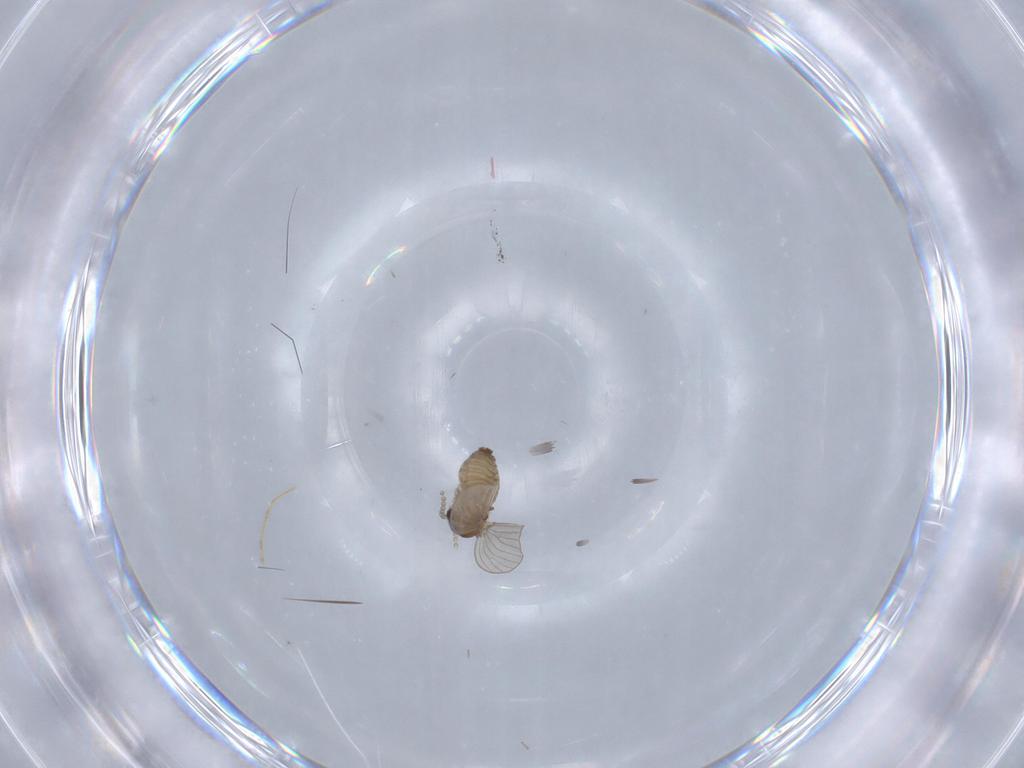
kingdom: Animalia
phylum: Arthropoda
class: Insecta
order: Diptera
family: Psychodidae
